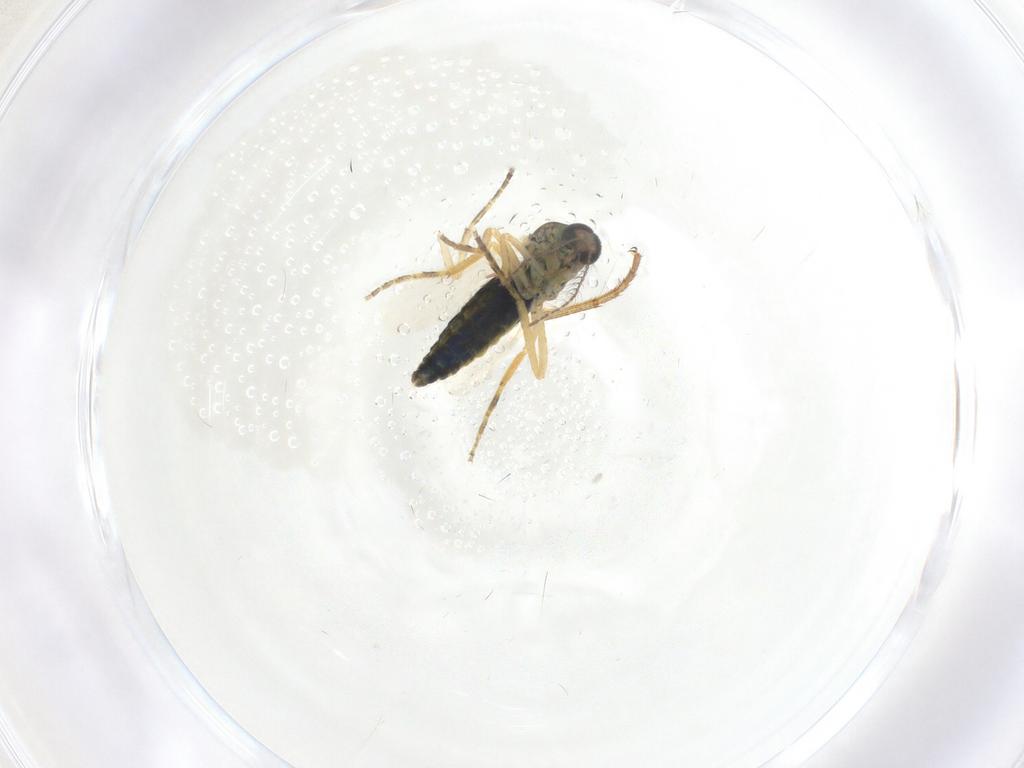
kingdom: Animalia
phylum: Arthropoda
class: Insecta
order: Diptera
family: Ceratopogonidae
